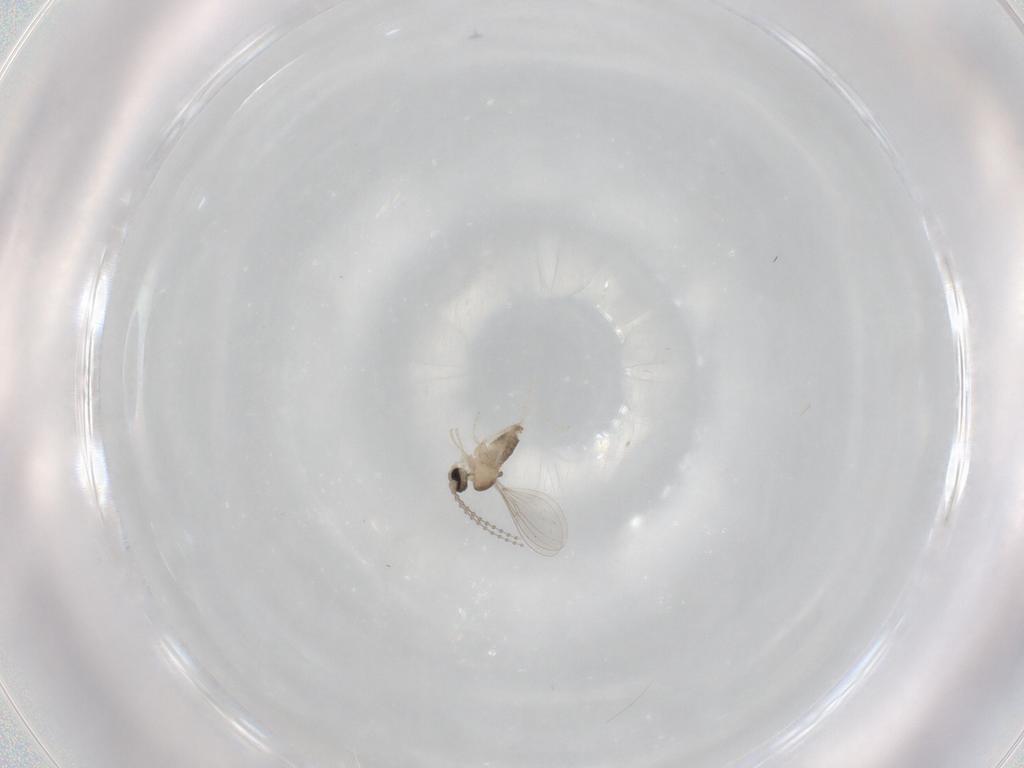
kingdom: Animalia
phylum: Arthropoda
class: Insecta
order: Diptera
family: Cecidomyiidae
